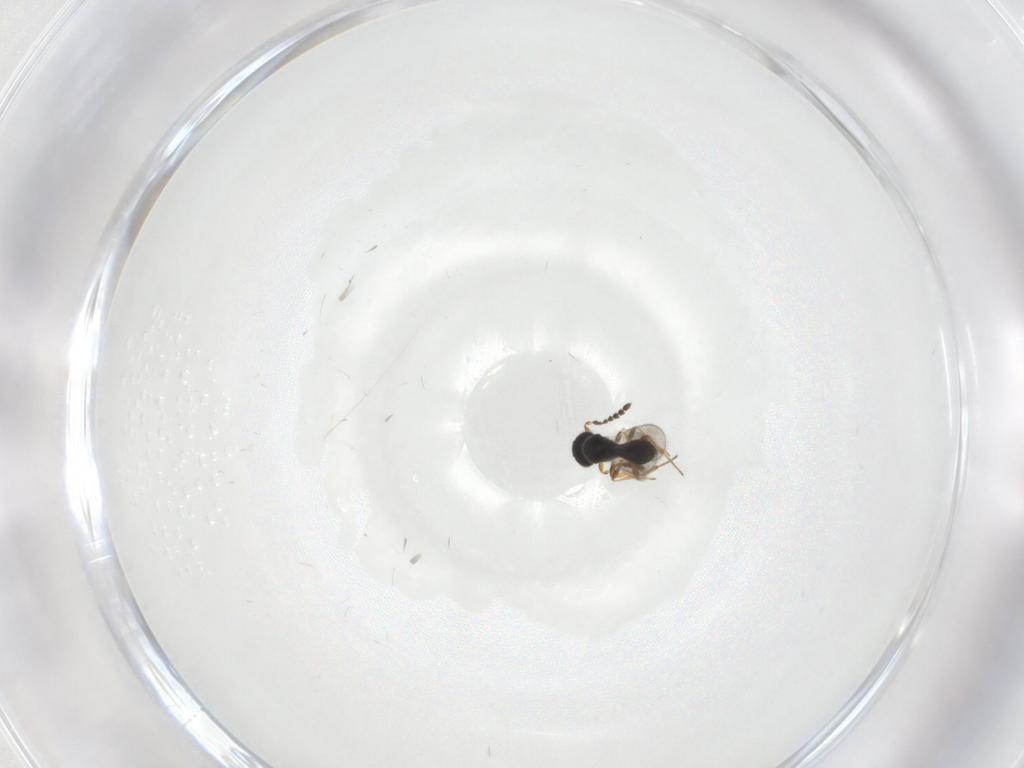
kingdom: Animalia
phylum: Arthropoda
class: Insecta
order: Hymenoptera
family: Platygastridae
